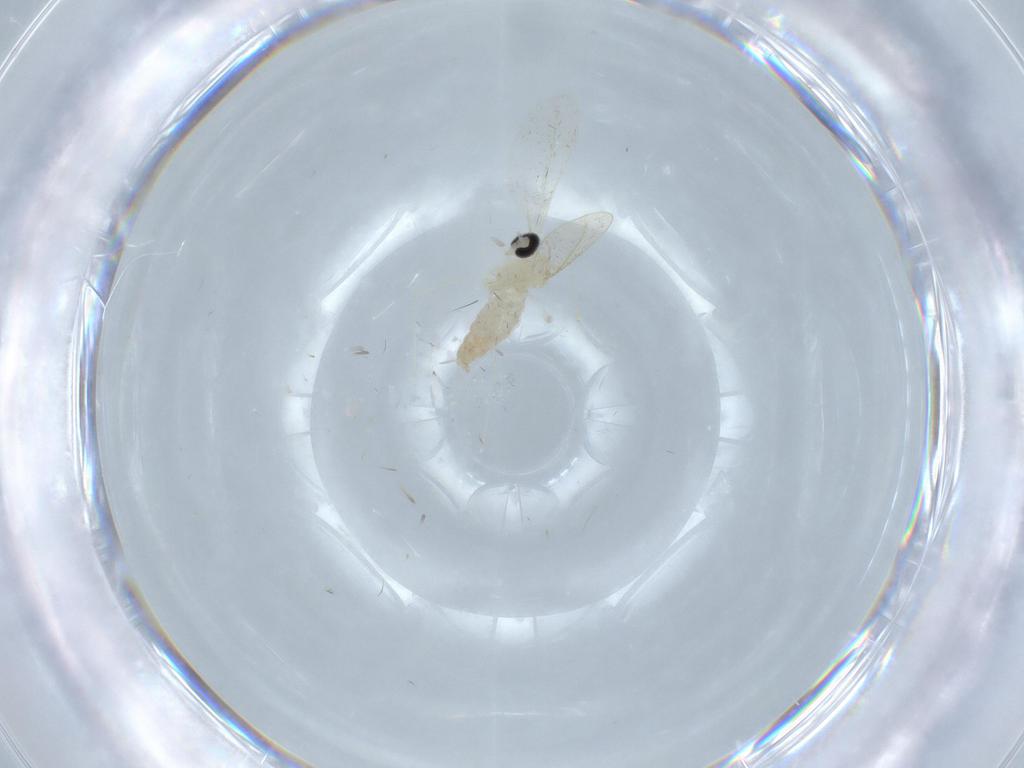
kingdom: Animalia
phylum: Arthropoda
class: Insecta
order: Diptera
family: Cecidomyiidae
